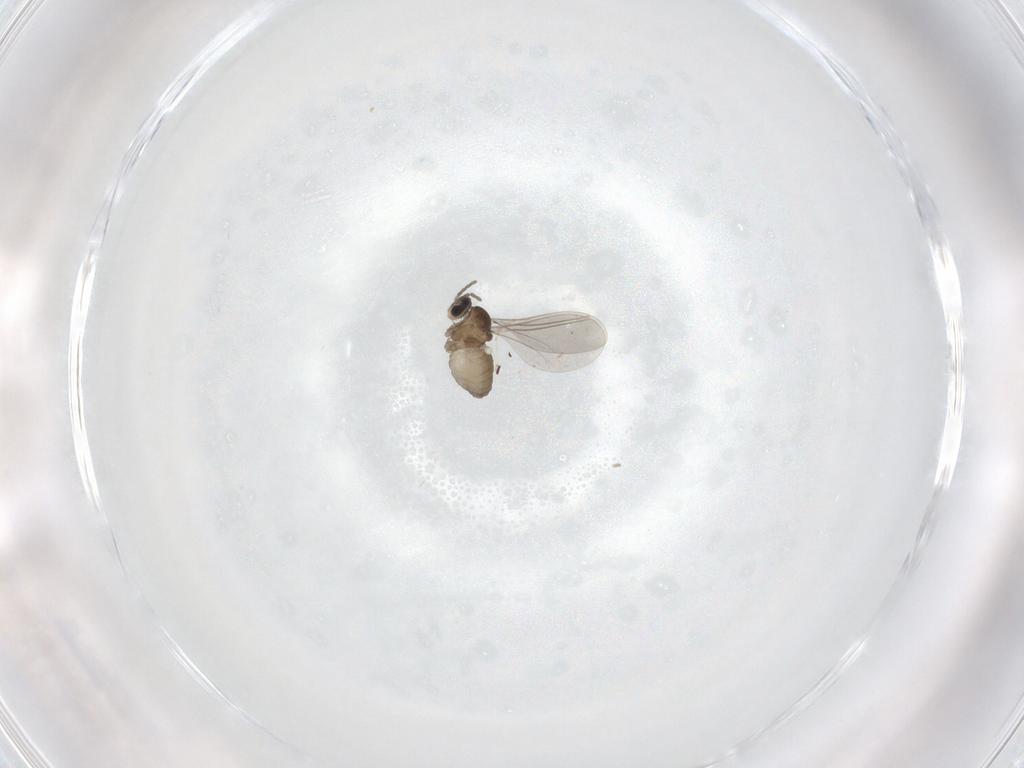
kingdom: Animalia
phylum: Arthropoda
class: Insecta
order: Diptera
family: Cecidomyiidae
